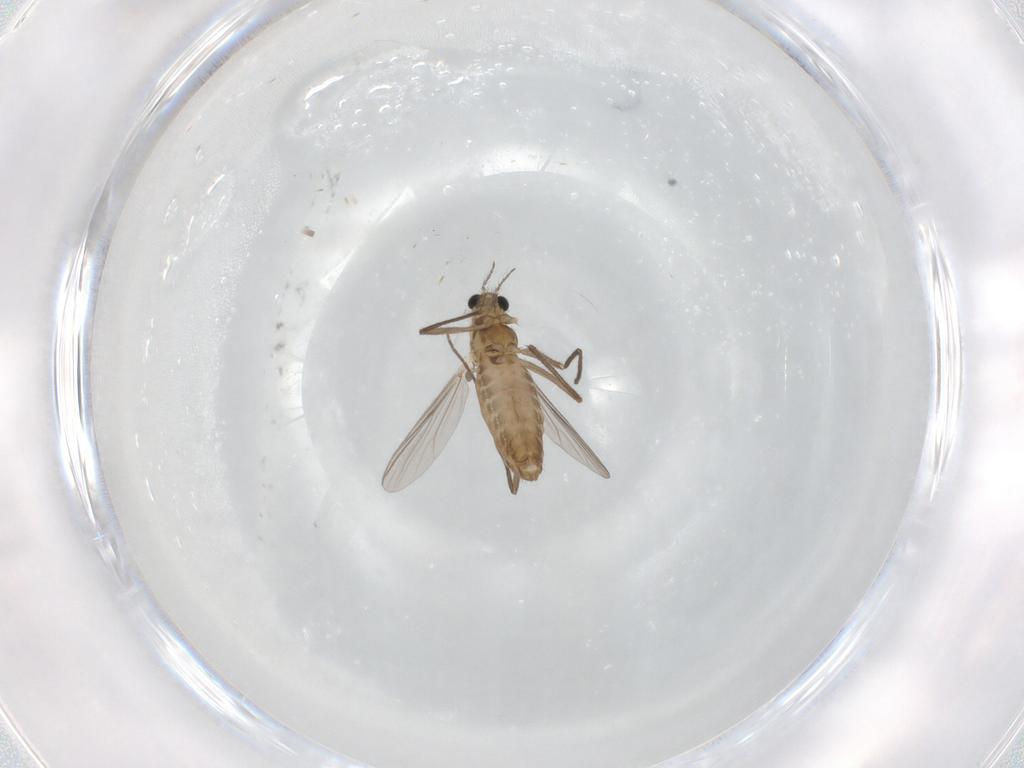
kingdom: Animalia
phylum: Arthropoda
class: Insecta
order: Diptera
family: Chironomidae
